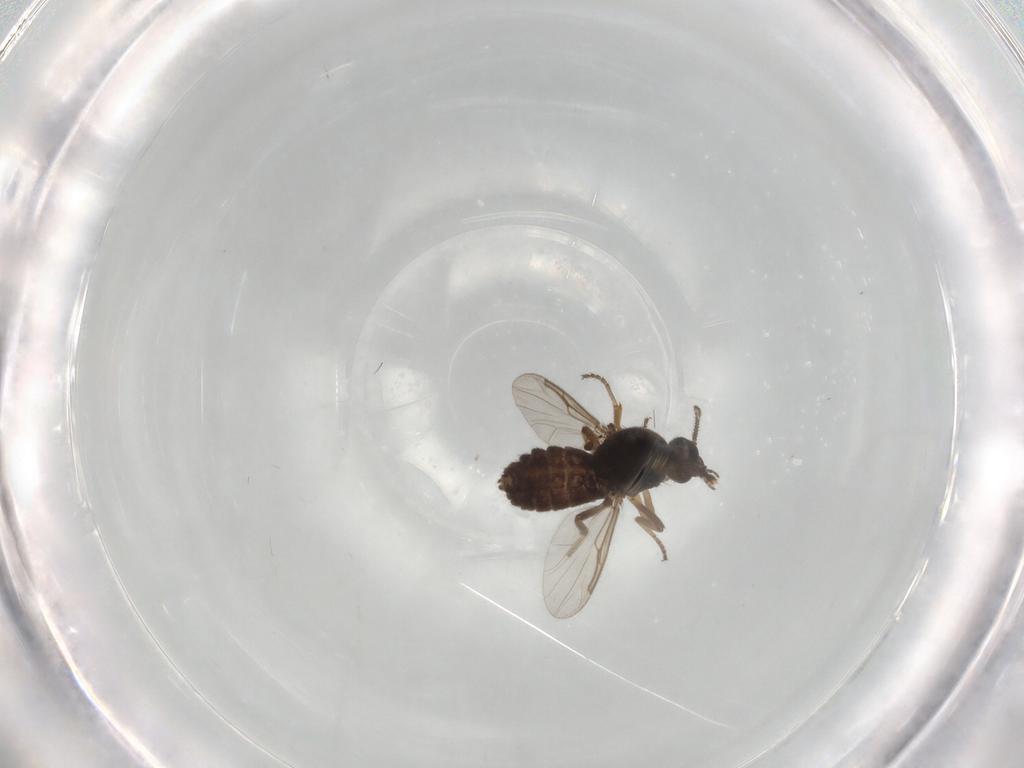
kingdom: Animalia
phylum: Arthropoda
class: Insecta
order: Diptera
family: Ceratopogonidae
